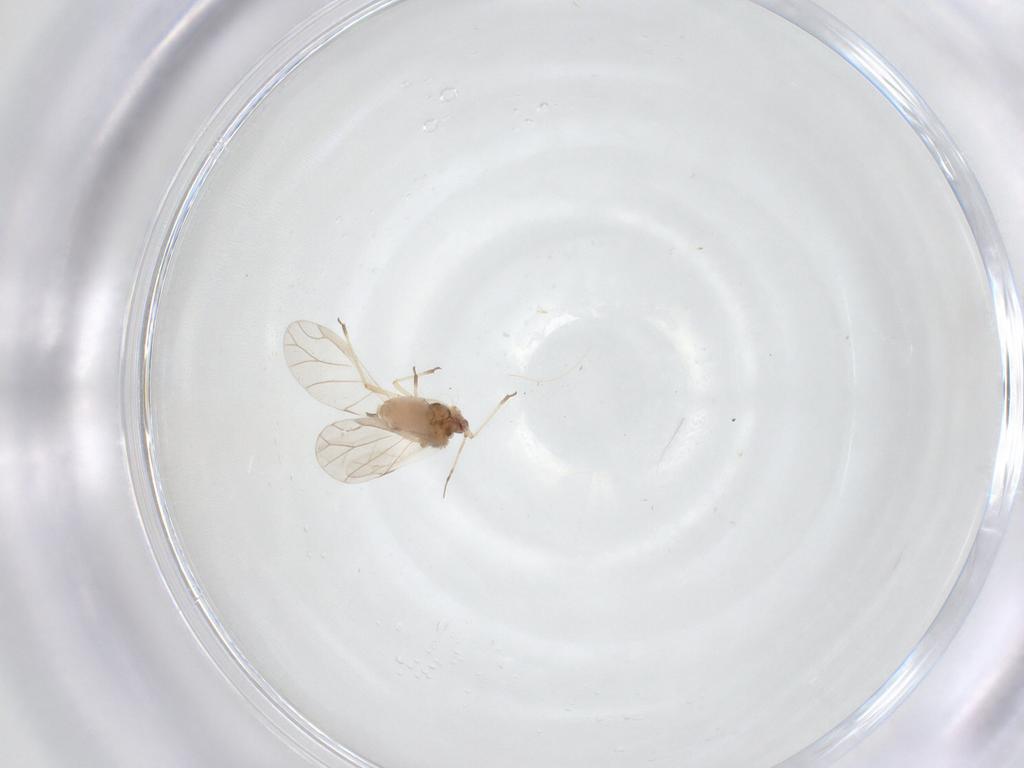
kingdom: Animalia
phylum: Arthropoda
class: Insecta
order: Hemiptera
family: Aphididae
